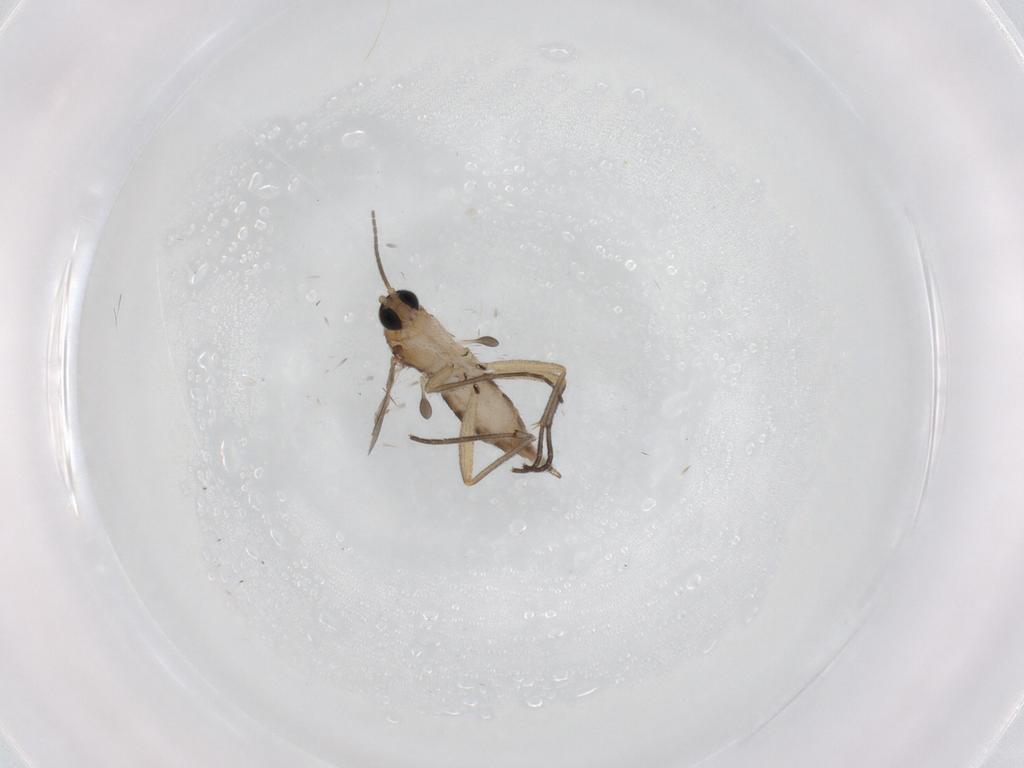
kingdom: Animalia
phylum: Arthropoda
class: Insecta
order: Diptera
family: Sciaridae
